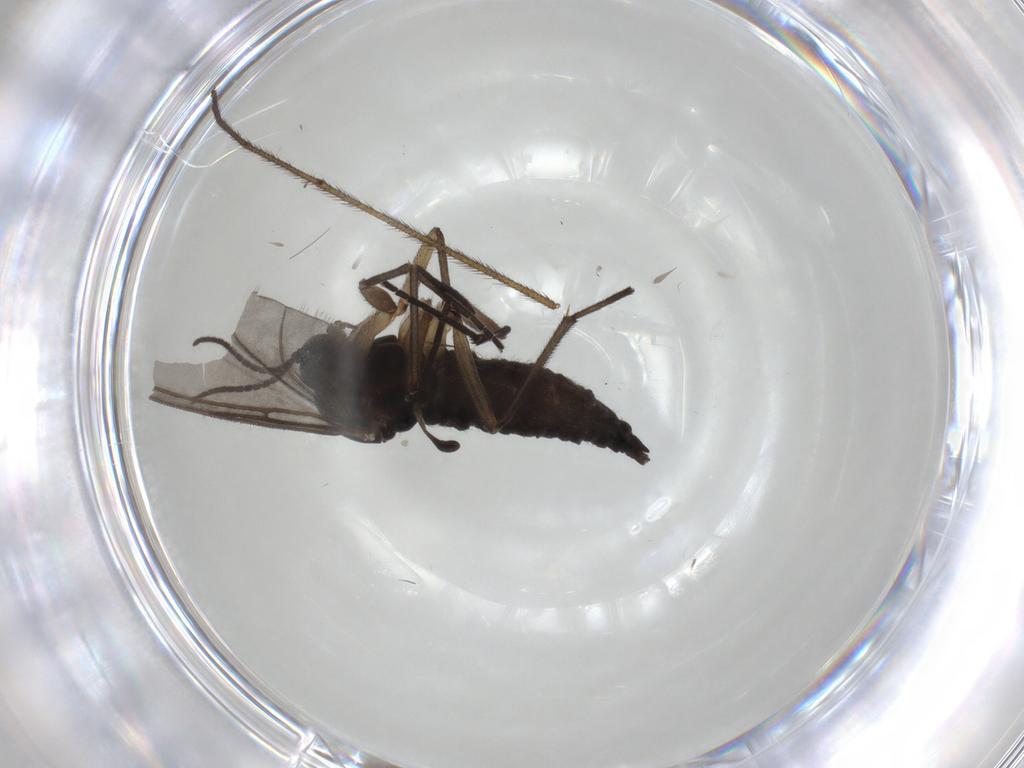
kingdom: Animalia
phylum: Arthropoda
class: Insecta
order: Diptera
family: Sciaridae
